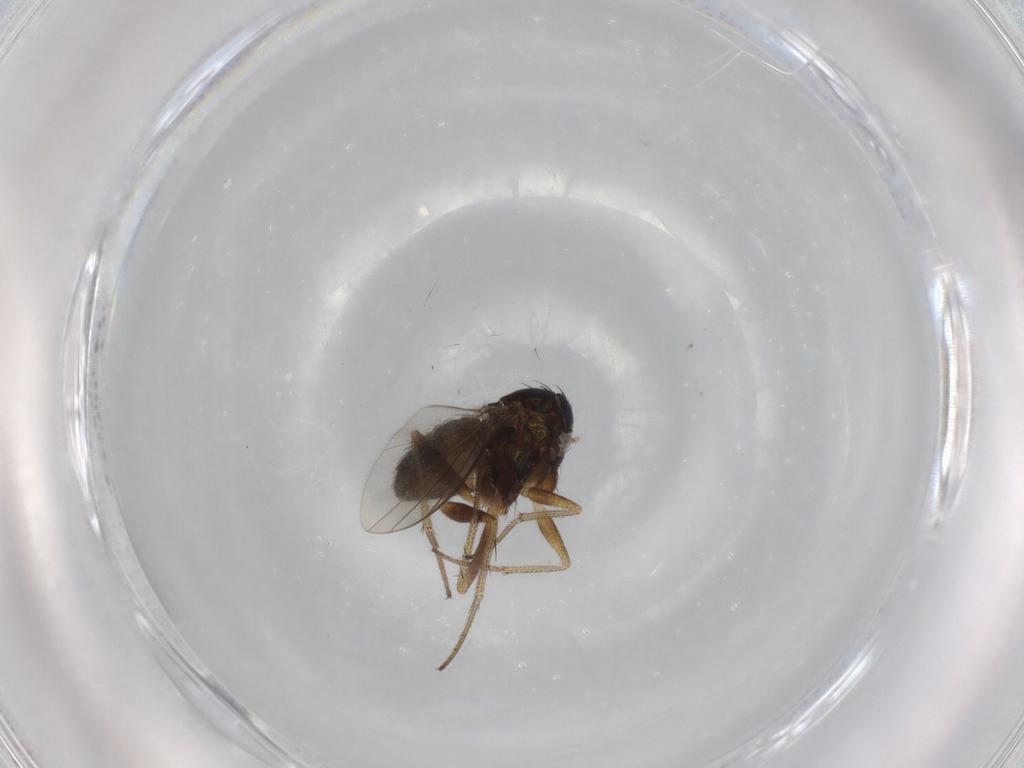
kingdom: Animalia
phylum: Arthropoda
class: Insecta
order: Diptera
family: Dolichopodidae
